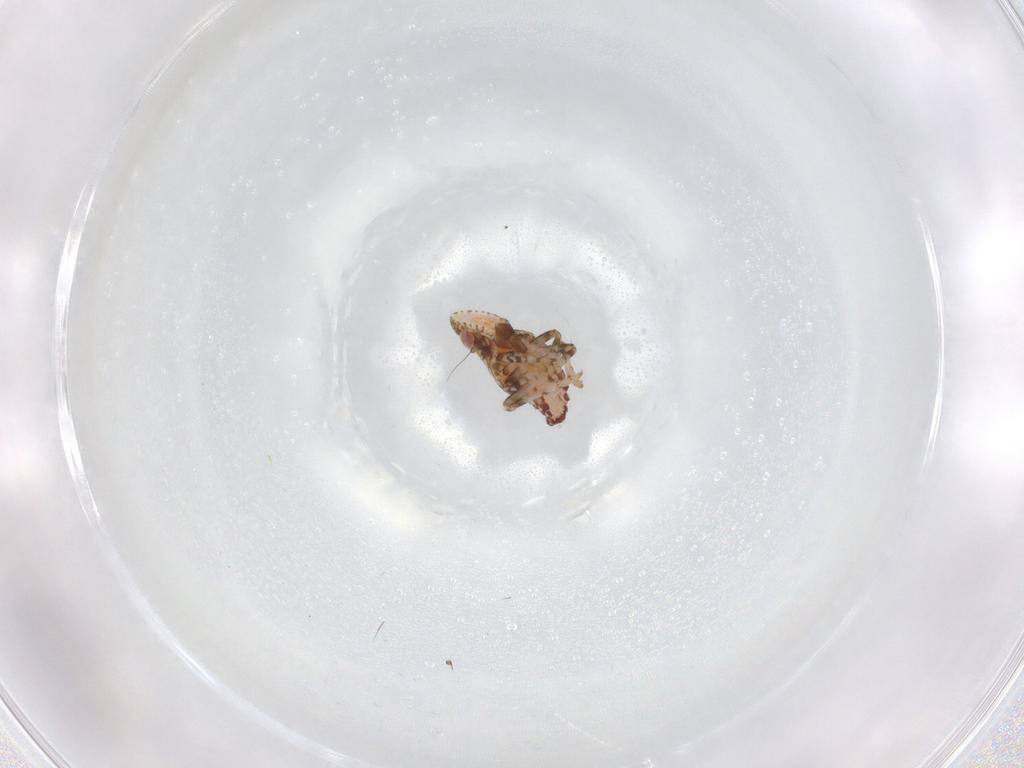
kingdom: Animalia
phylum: Arthropoda
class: Insecta
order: Hemiptera
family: Tropiduchidae
